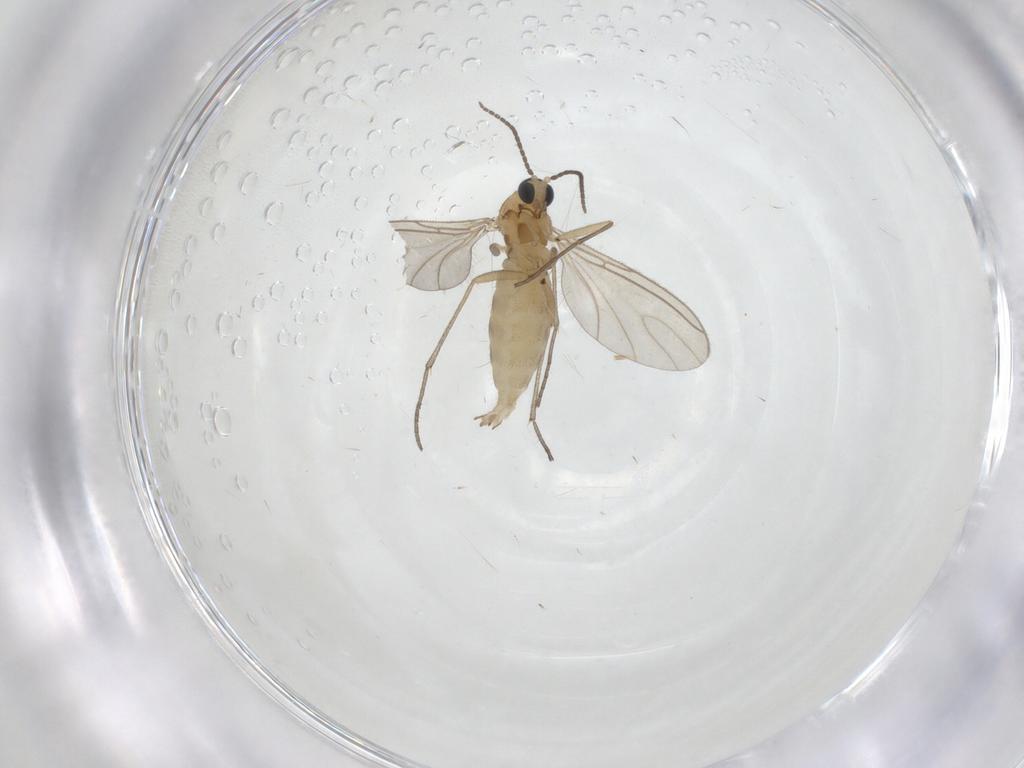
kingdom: Animalia
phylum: Arthropoda
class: Insecta
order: Diptera
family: Sciaridae
